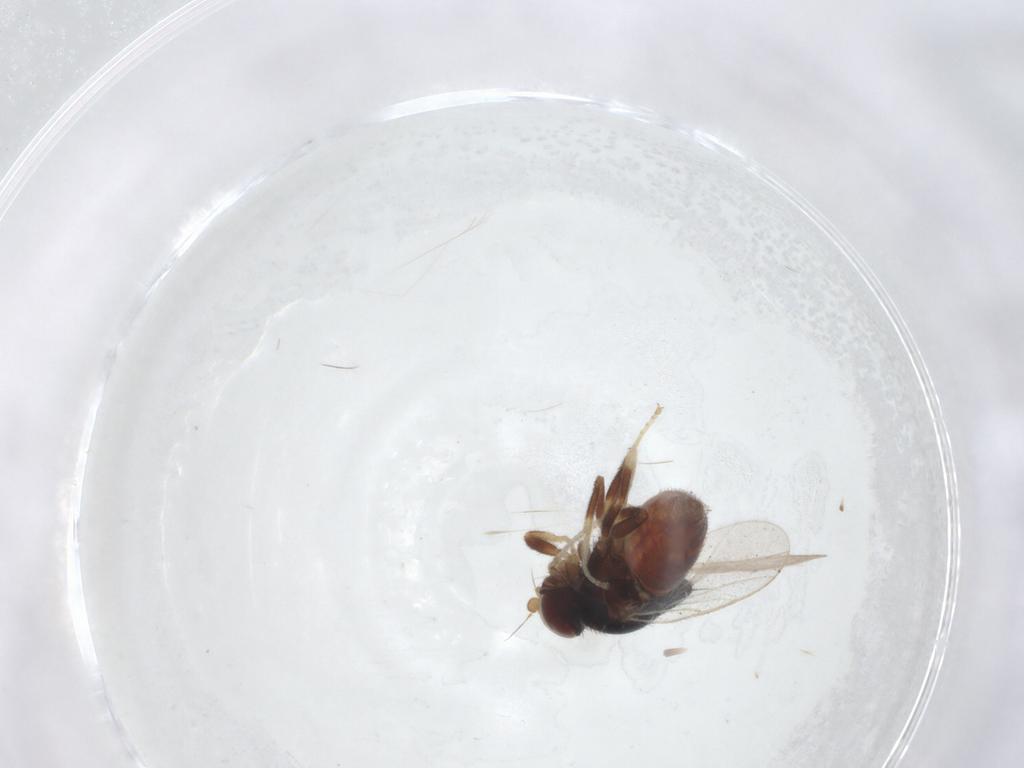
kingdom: Animalia
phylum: Arthropoda
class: Insecta
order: Diptera
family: Chloropidae
